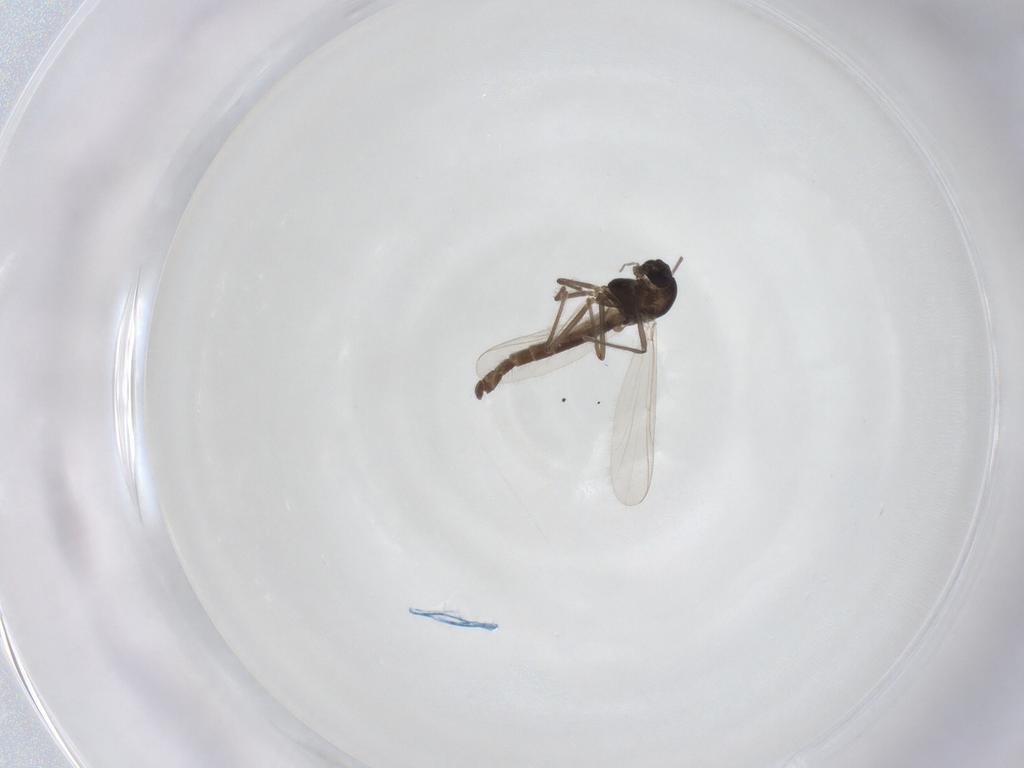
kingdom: Animalia
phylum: Arthropoda
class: Insecta
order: Diptera
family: Chironomidae
